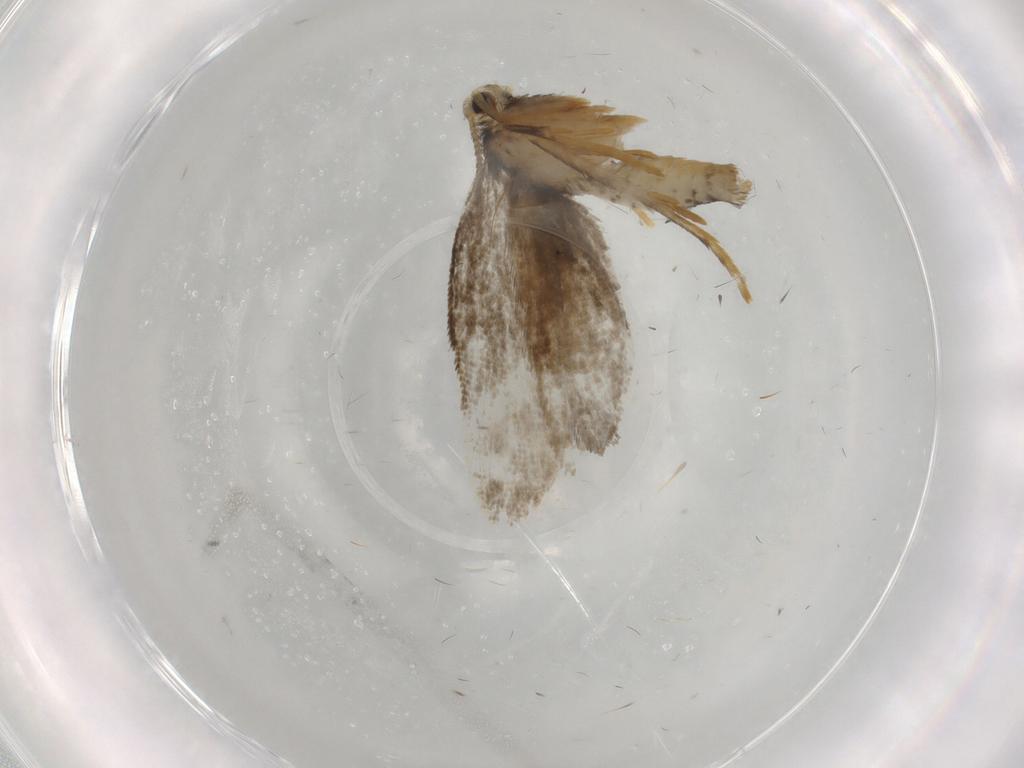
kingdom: Animalia
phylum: Arthropoda
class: Insecta
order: Lepidoptera
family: Psychidae
